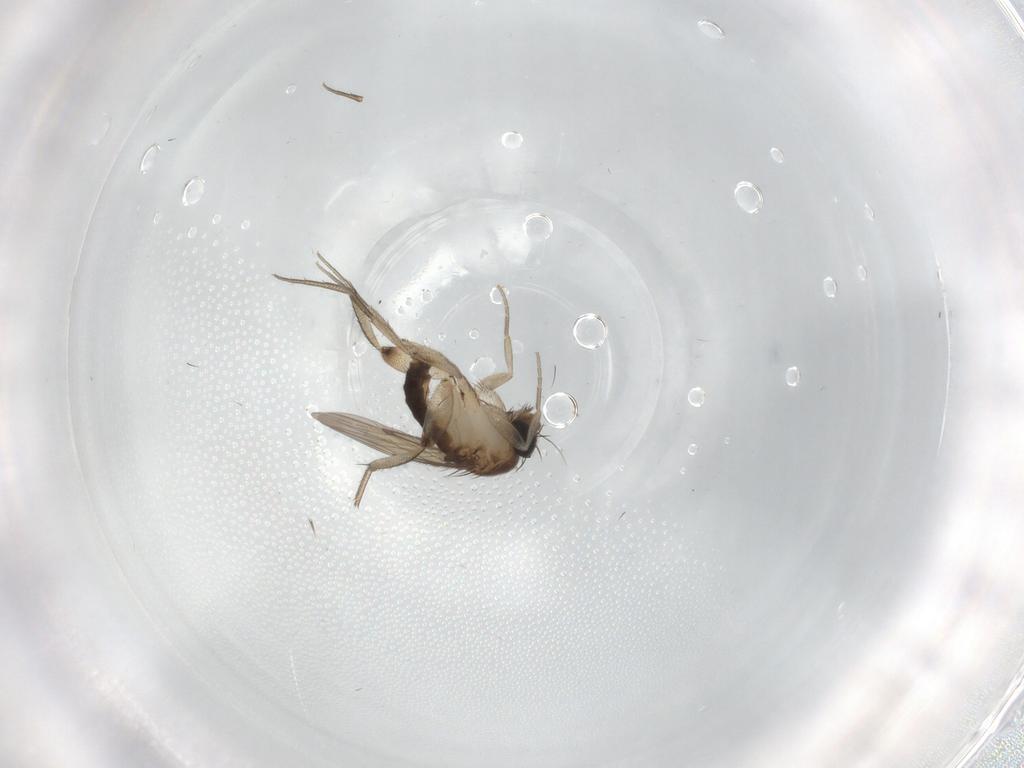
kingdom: Animalia
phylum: Arthropoda
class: Insecta
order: Diptera
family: Phoridae
